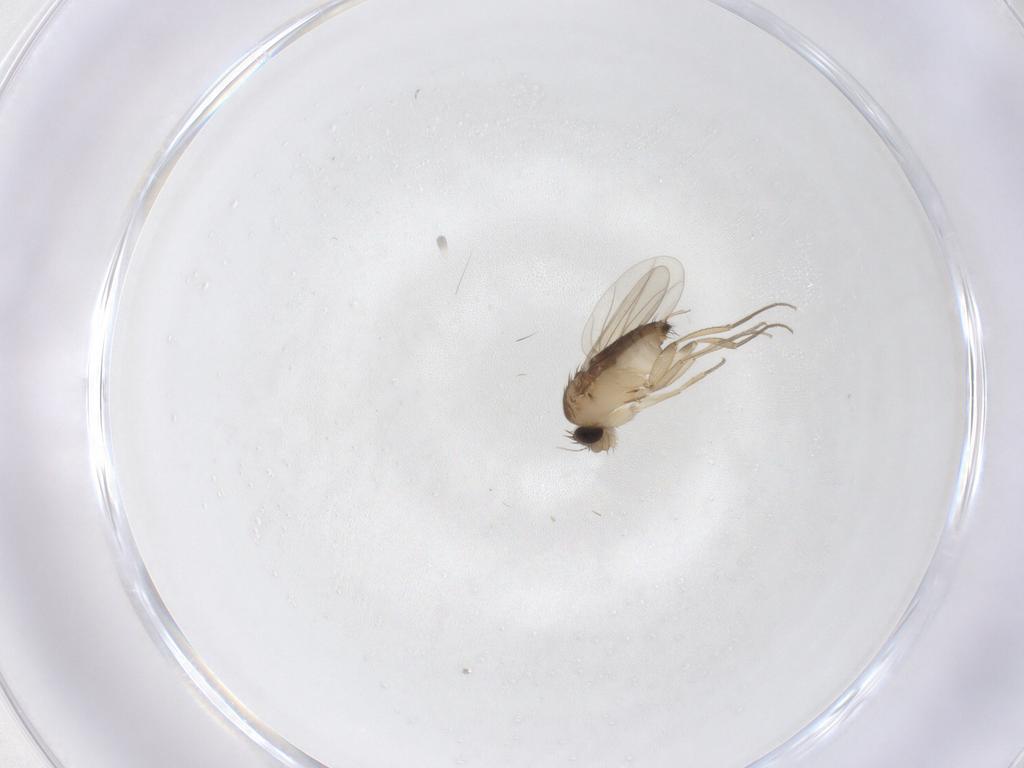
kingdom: Animalia
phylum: Arthropoda
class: Insecta
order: Diptera
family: Phoridae
